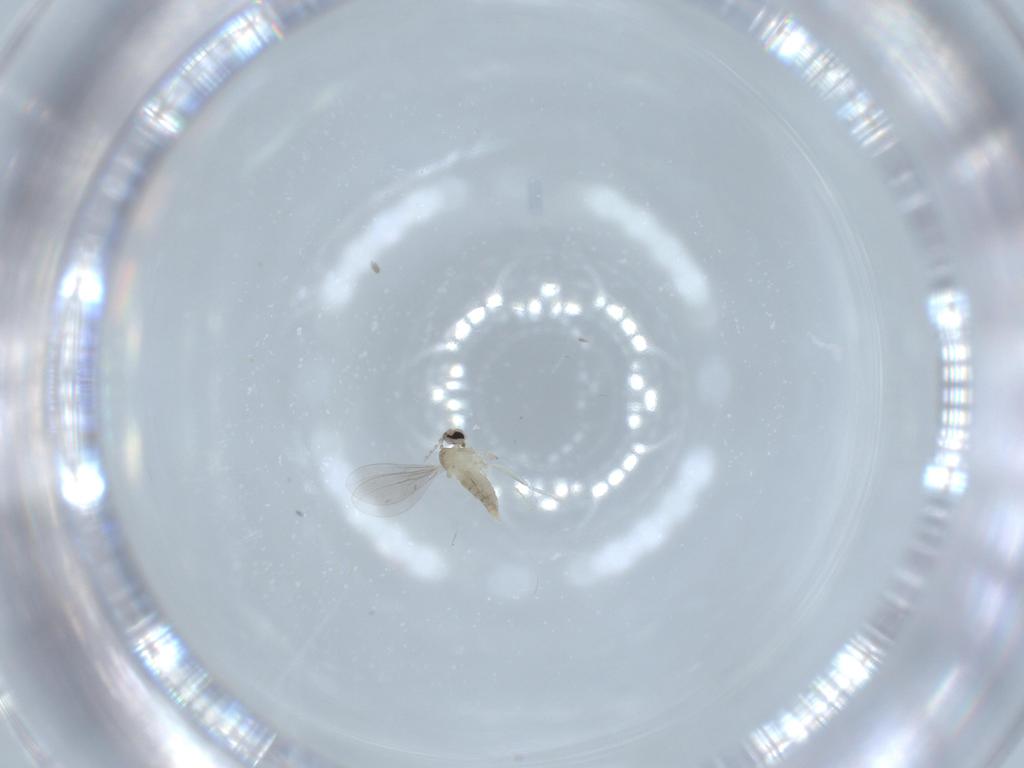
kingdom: Animalia
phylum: Arthropoda
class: Insecta
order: Diptera
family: Cecidomyiidae
